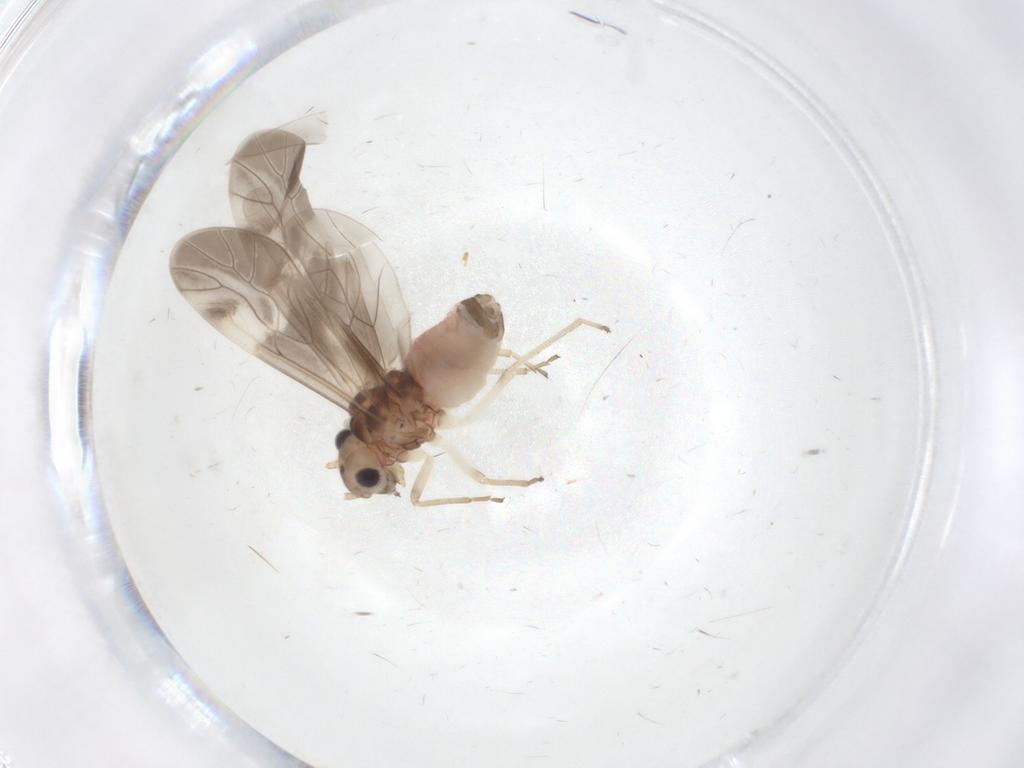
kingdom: Animalia
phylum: Arthropoda
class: Insecta
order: Psocodea
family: Caeciliusidae
